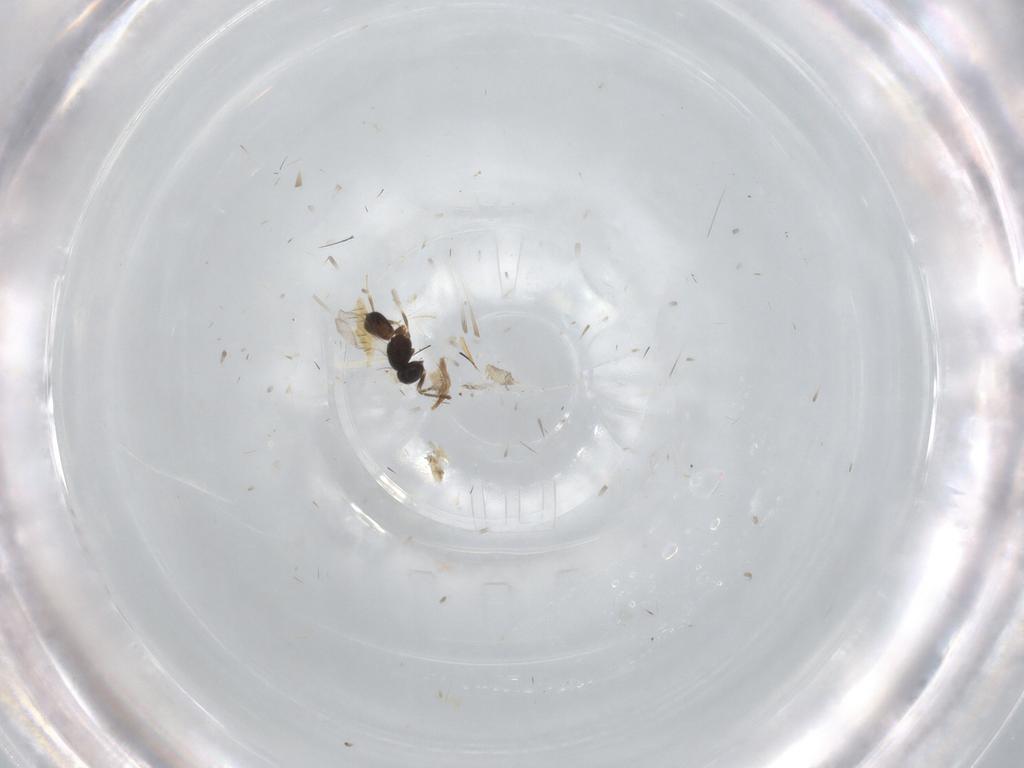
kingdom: Animalia
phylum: Arthropoda
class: Insecta
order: Hymenoptera
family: Scelionidae
